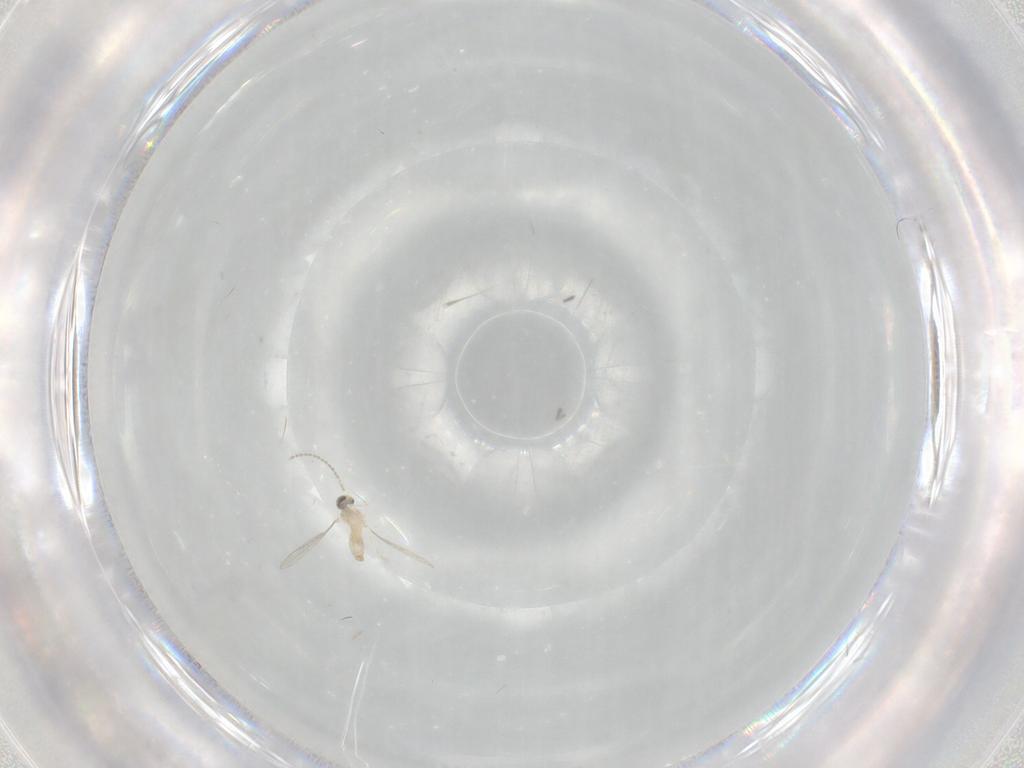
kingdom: Animalia
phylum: Arthropoda
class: Insecta
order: Diptera
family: Cecidomyiidae
